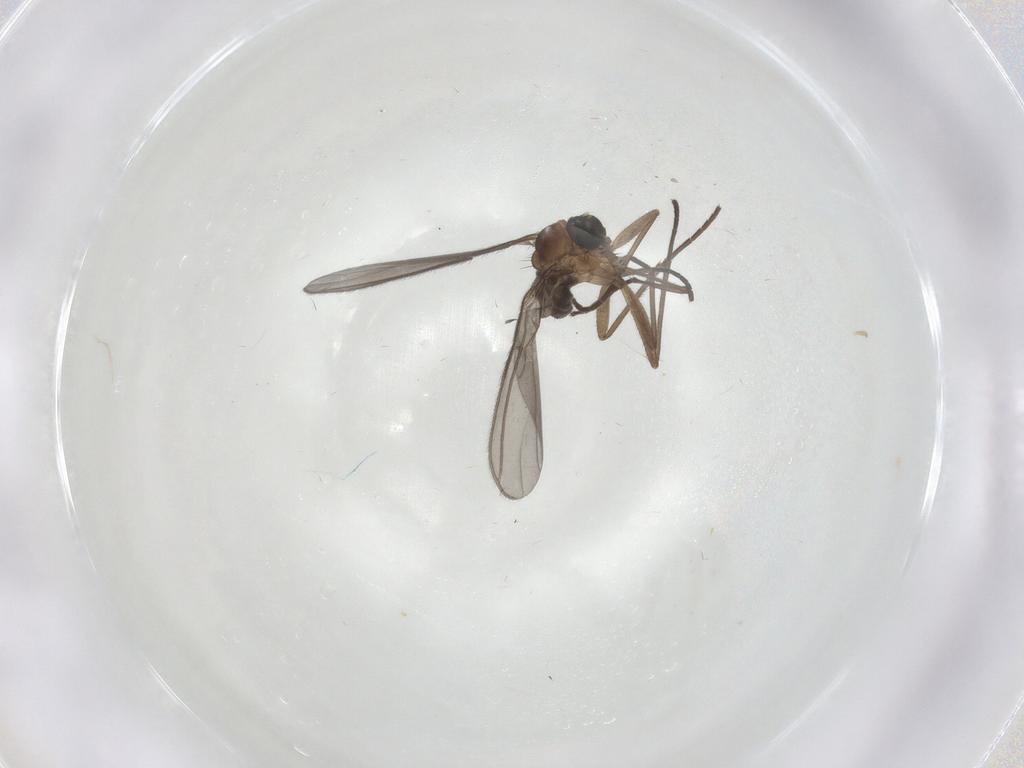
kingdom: Animalia
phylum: Arthropoda
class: Insecta
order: Diptera
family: Sciaridae
